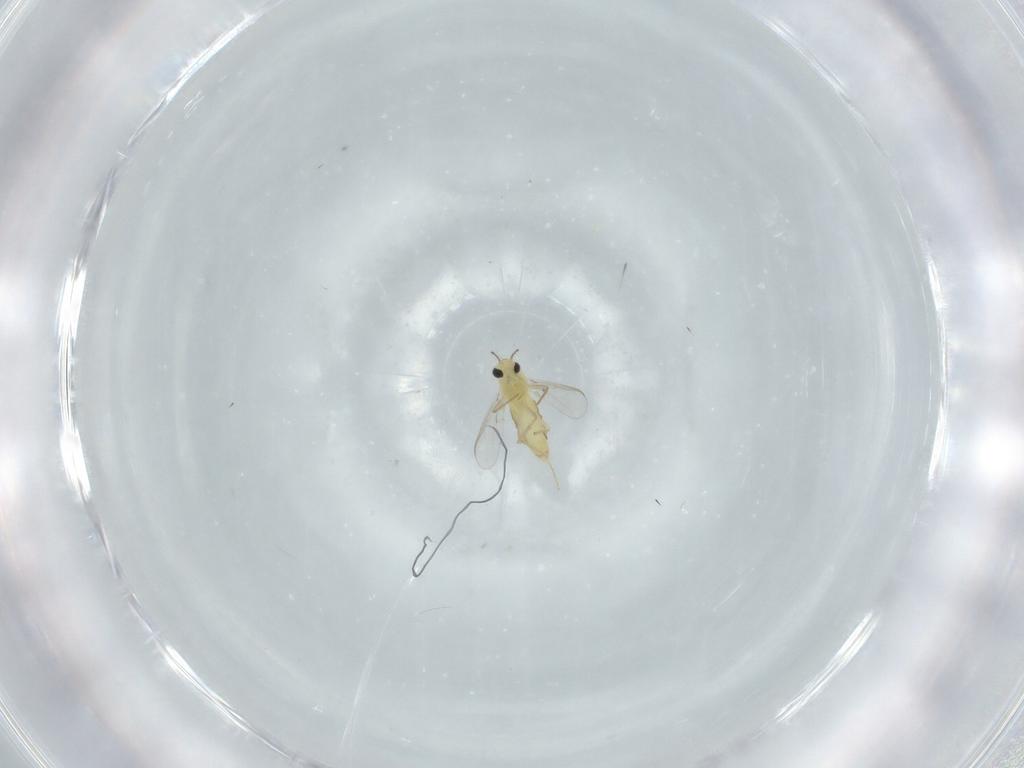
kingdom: Animalia
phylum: Arthropoda
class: Insecta
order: Diptera
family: Chironomidae
